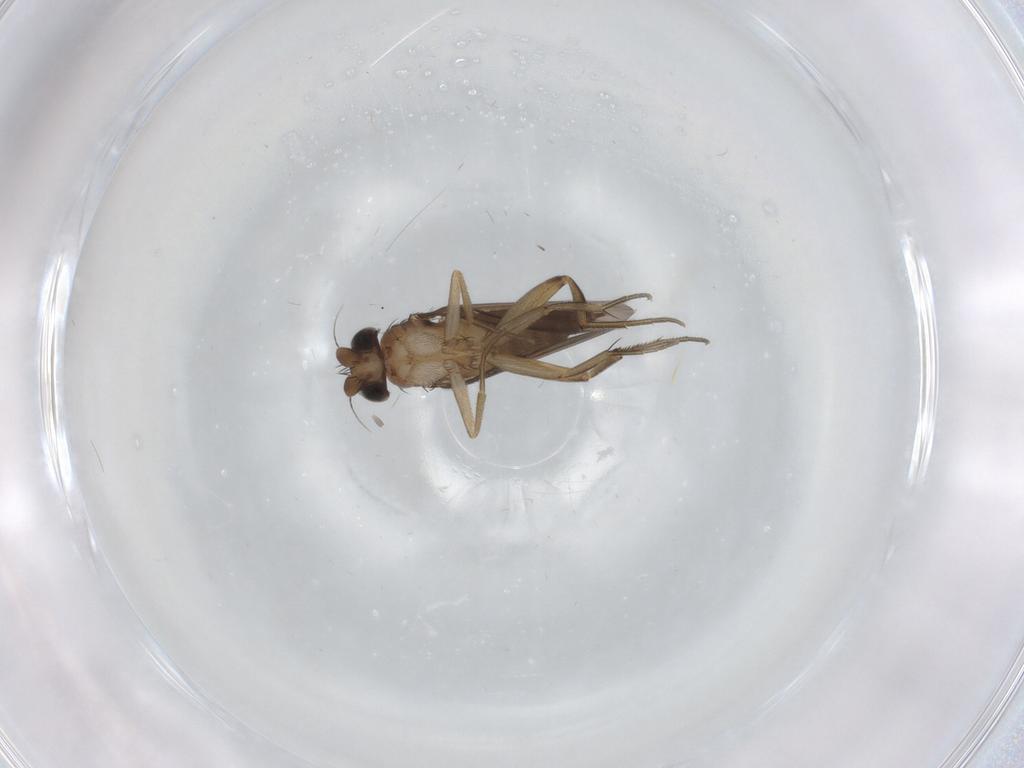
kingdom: Animalia
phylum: Arthropoda
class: Insecta
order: Diptera
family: Phoridae
